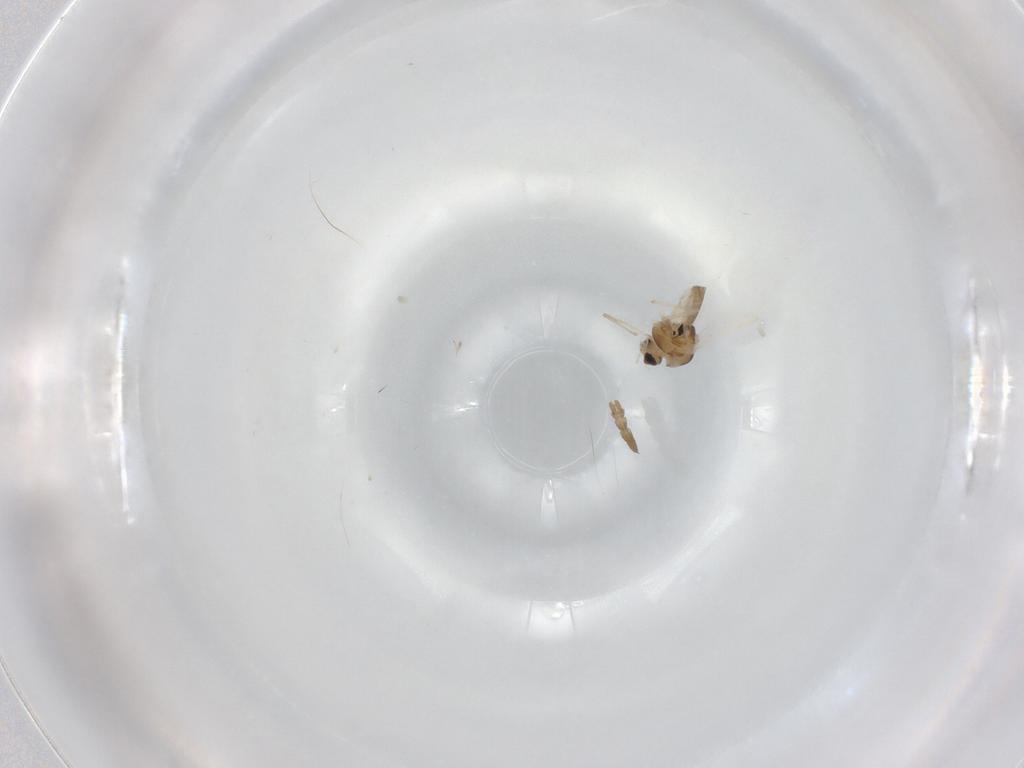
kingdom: Animalia
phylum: Arthropoda
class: Insecta
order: Diptera
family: Chironomidae
